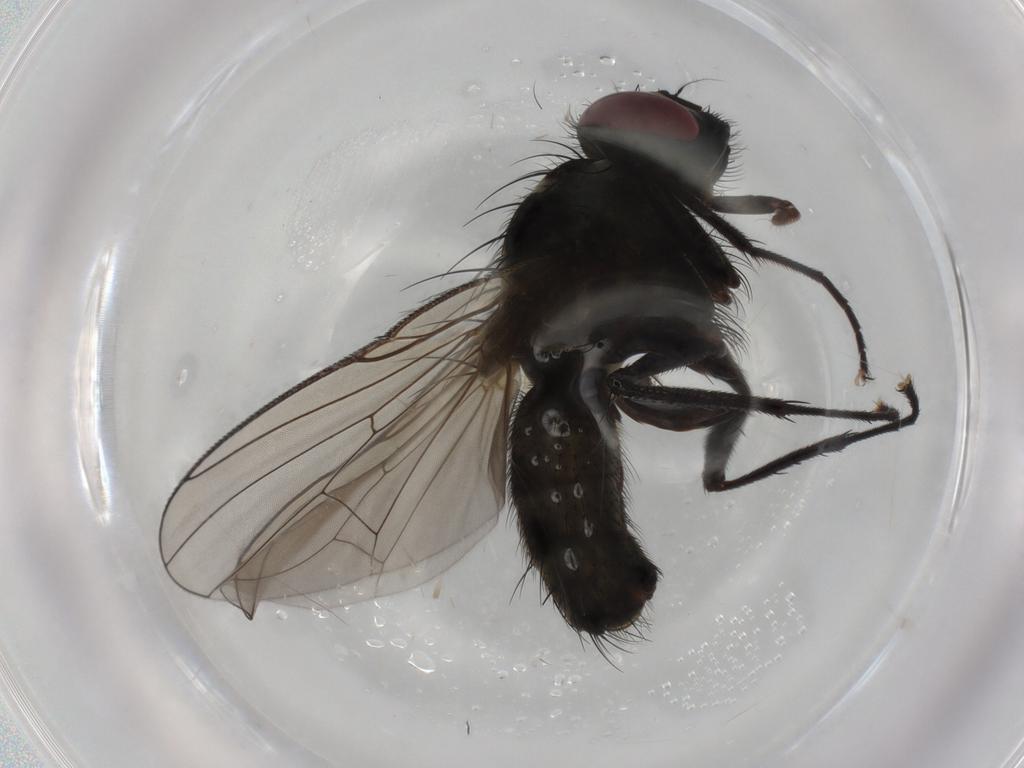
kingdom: Animalia
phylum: Arthropoda
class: Insecta
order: Diptera
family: Muscidae
